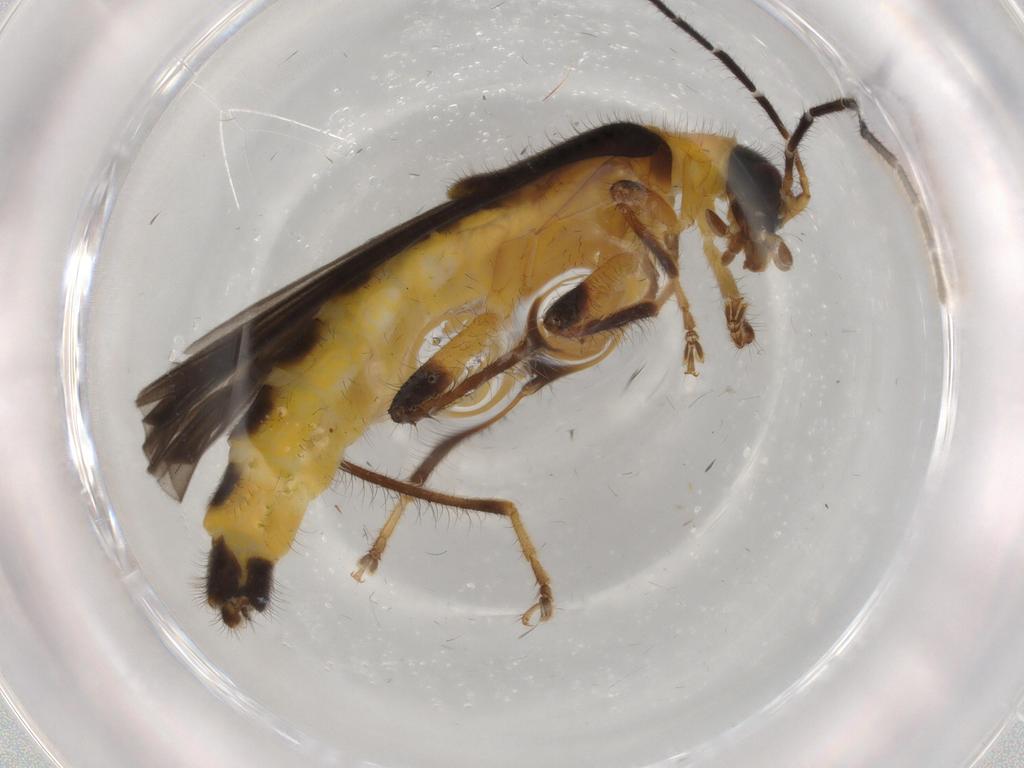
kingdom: Animalia
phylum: Arthropoda
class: Insecta
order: Coleoptera
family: Cantharidae
